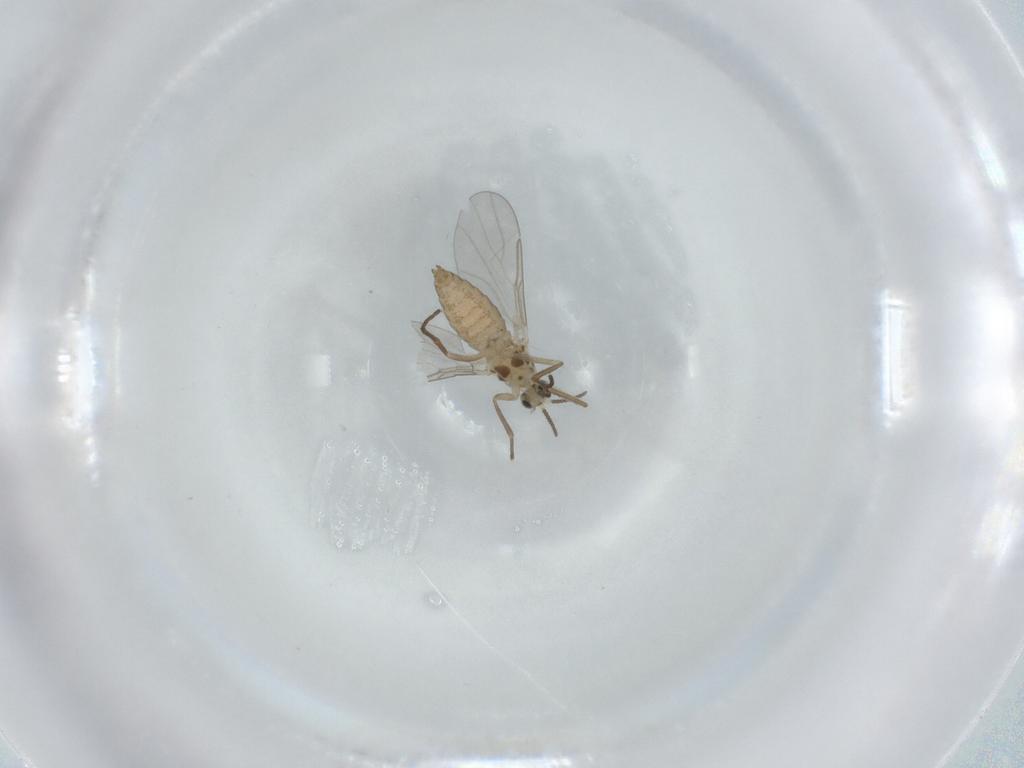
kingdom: Animalia
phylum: Arthropoda
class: Insecta
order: Diptera
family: Cecidomyiidae
